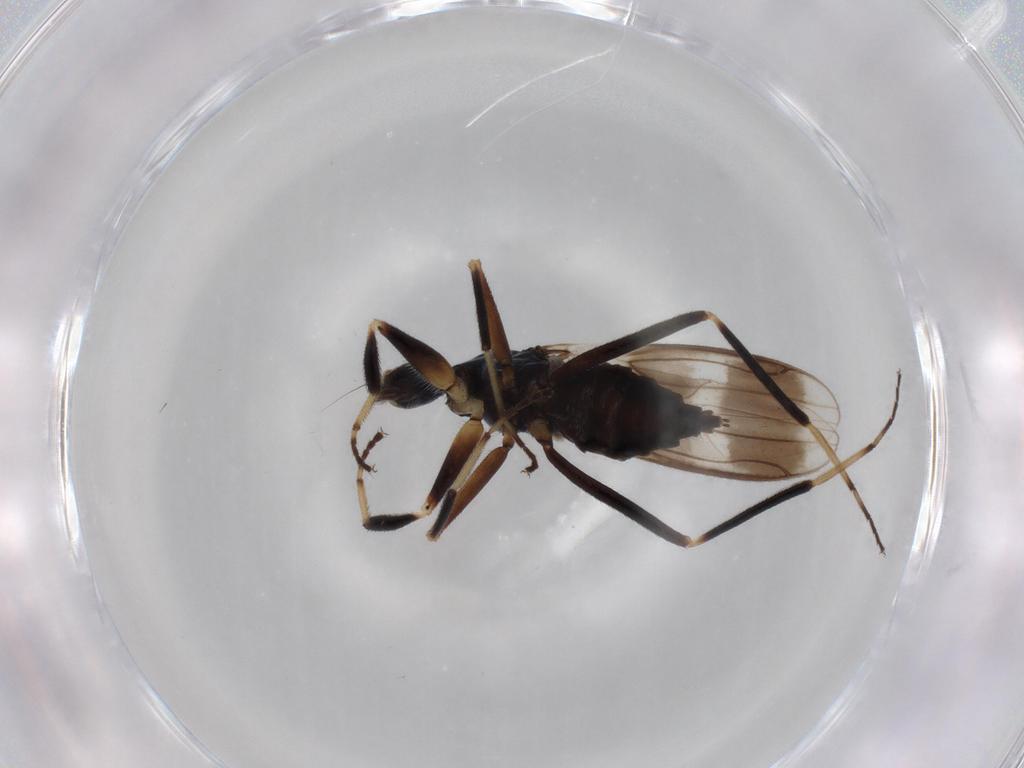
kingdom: Animalia
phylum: Arthropoda
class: Insecta
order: Diptera
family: Hybotidae
